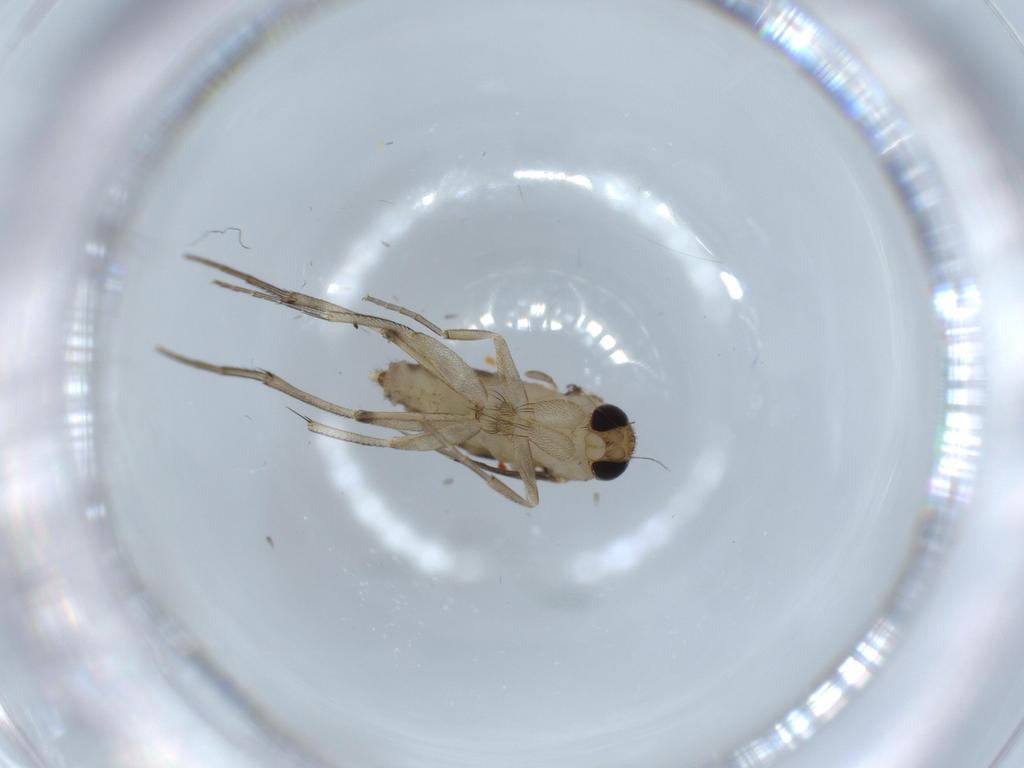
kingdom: Animalia
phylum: Arthropoda
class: Insecta
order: Diptera
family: Phoridae
